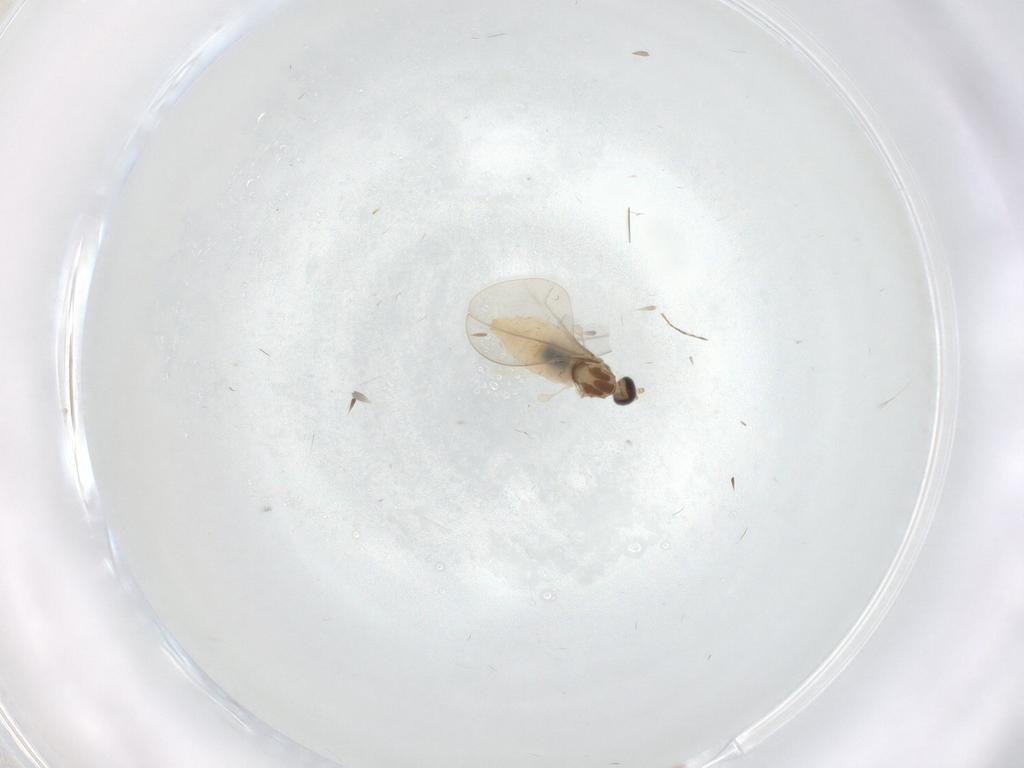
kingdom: Animalia
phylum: Arthropoda
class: Insecta
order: Diptera
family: Cecidomyiidae
